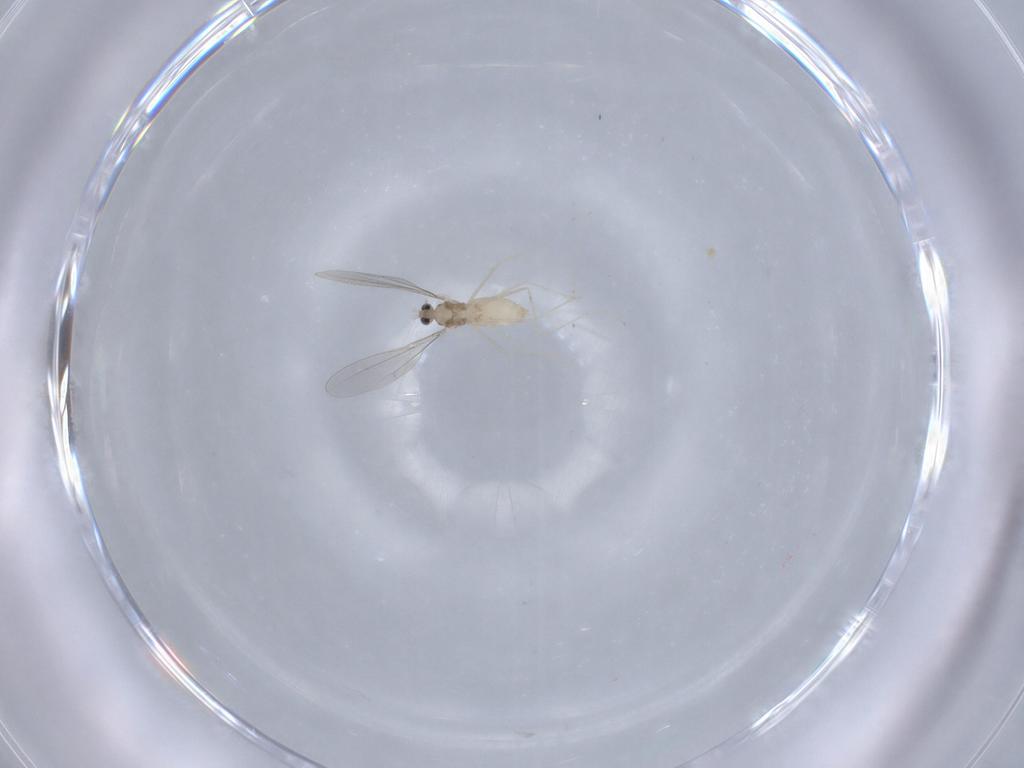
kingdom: Animalia
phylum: Arthropoda
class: Insecta
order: Diptera
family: Cecidomyiidae
